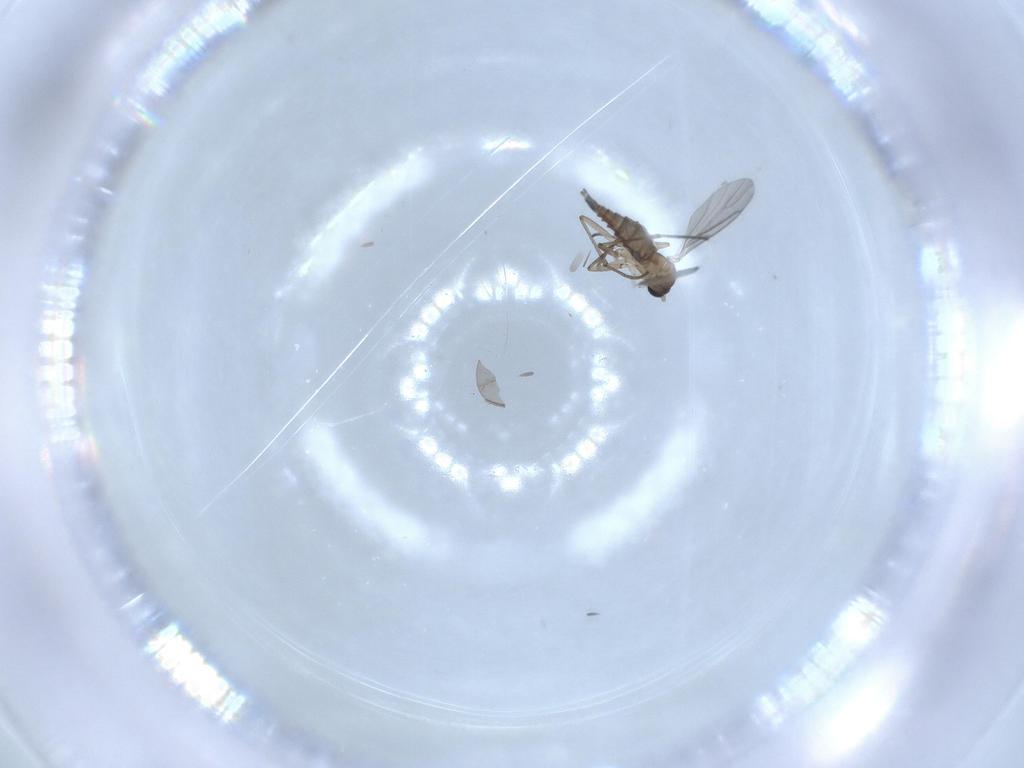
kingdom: Animalia
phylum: Arthropoda
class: Insecta
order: Diptera
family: Sciaridae
